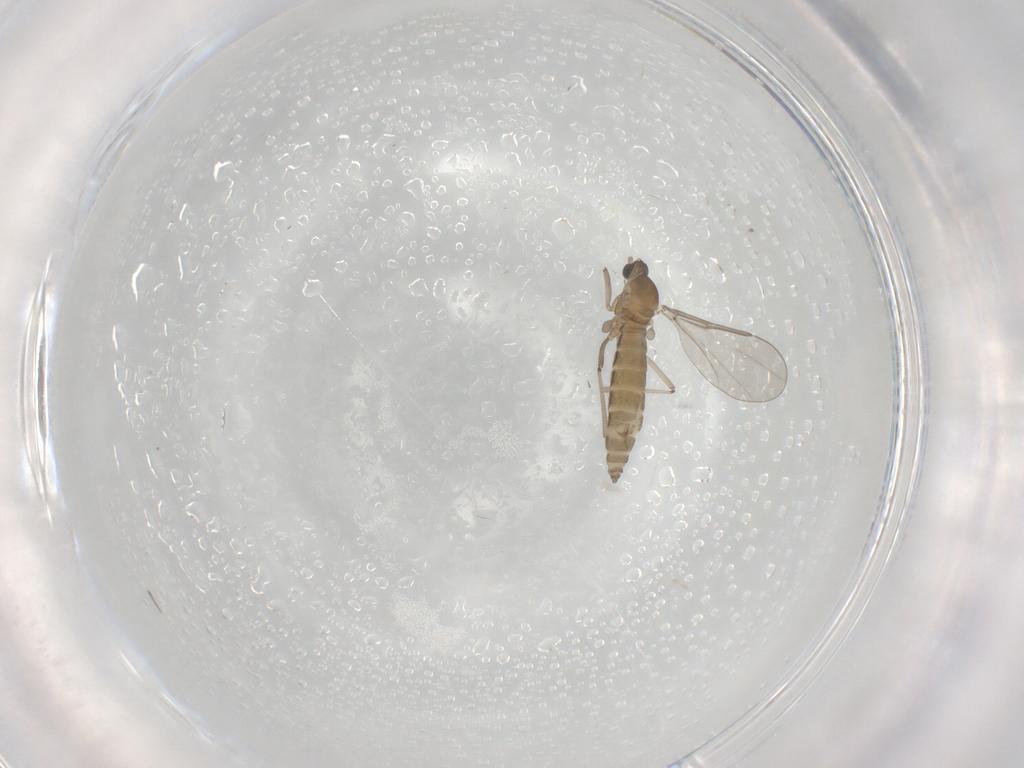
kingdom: Animalia
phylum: Arthropoda
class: Insecta
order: Diptera
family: Cecidomyiidae
